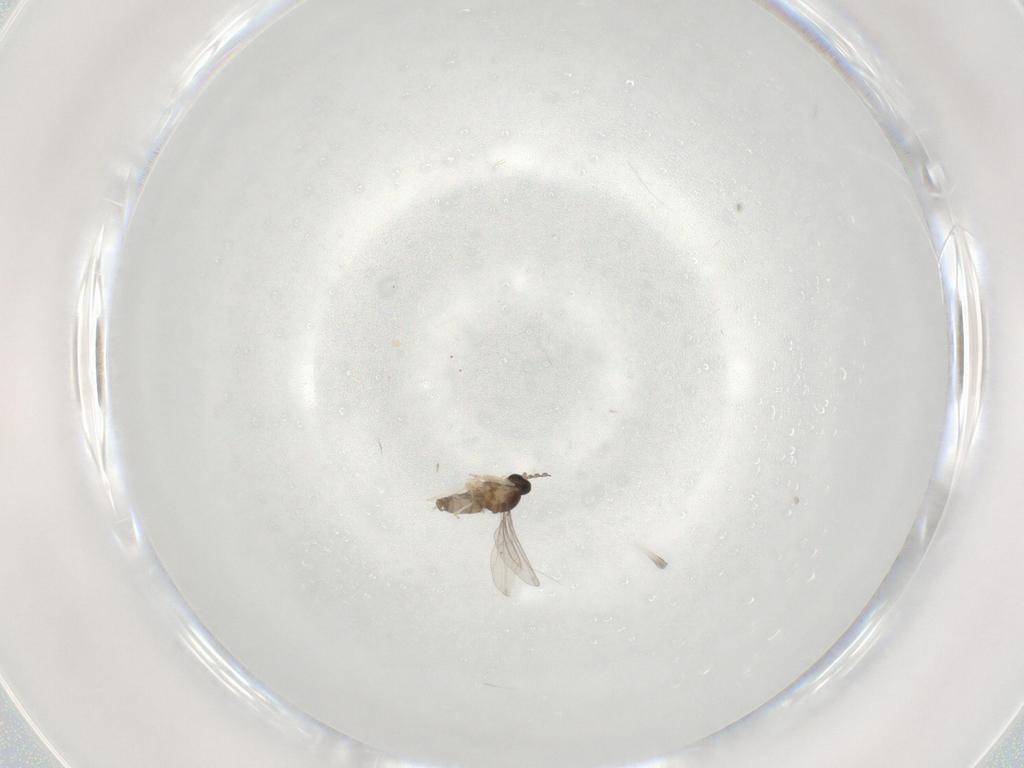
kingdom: Animalia
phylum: Arthropoda
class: Insecta
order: Diptera
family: Cecidomyiidae
